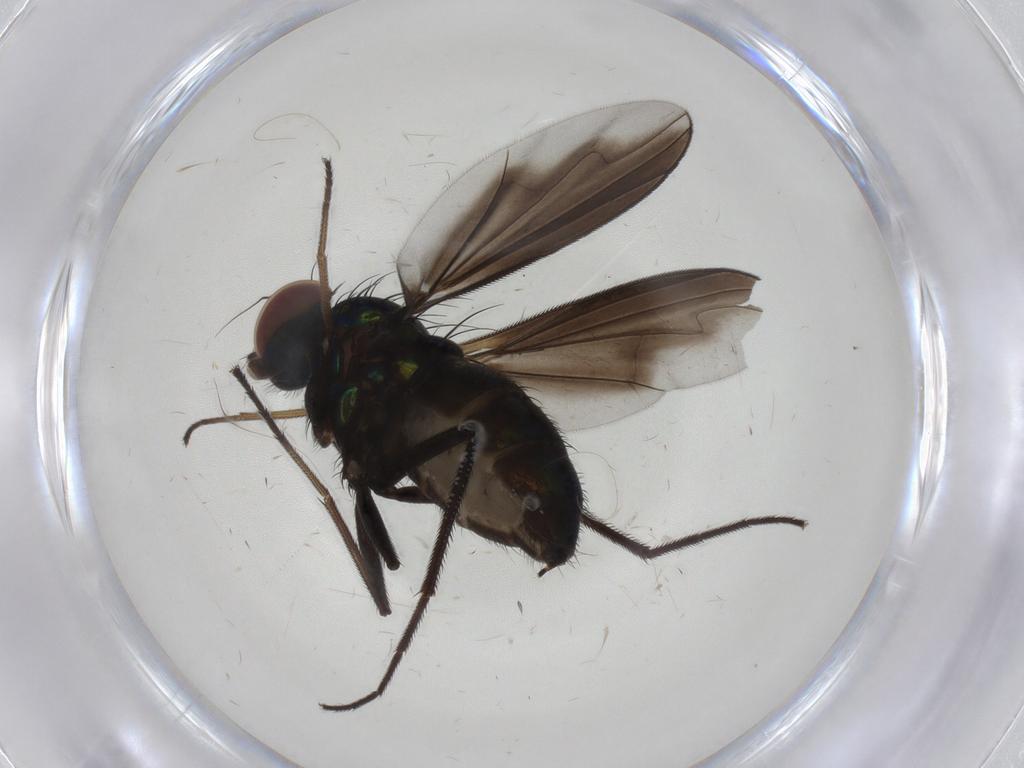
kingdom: Animalia
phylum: Arthropoda
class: Insecta
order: Diptera
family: Dolichopodidae
